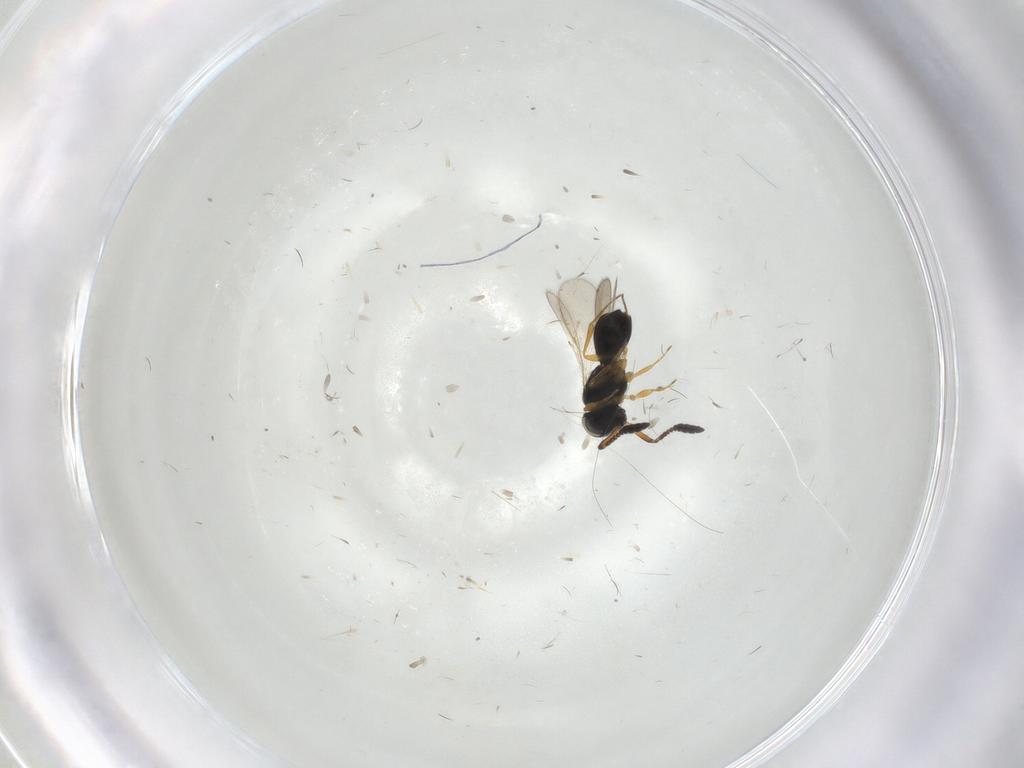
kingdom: Animalia
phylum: Arthropoda
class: Insecta
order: Hymenoptera
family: Scelionidae
